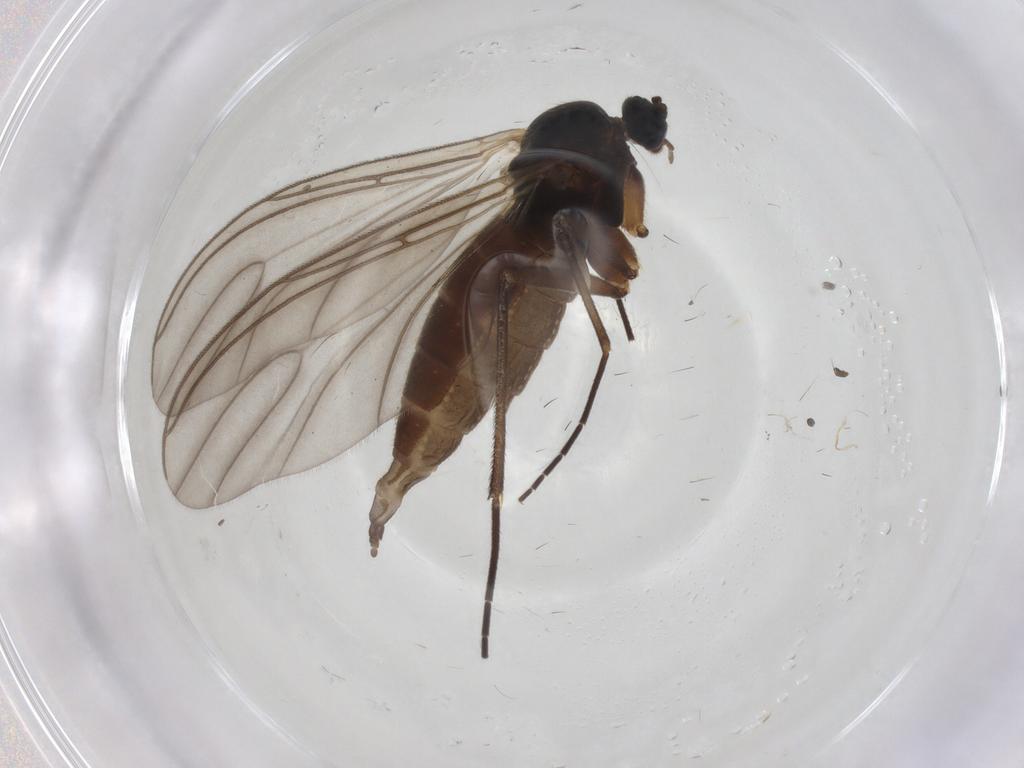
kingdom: Animalia
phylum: Arthropoda
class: Insecta
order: Diptera
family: Sciaridae
